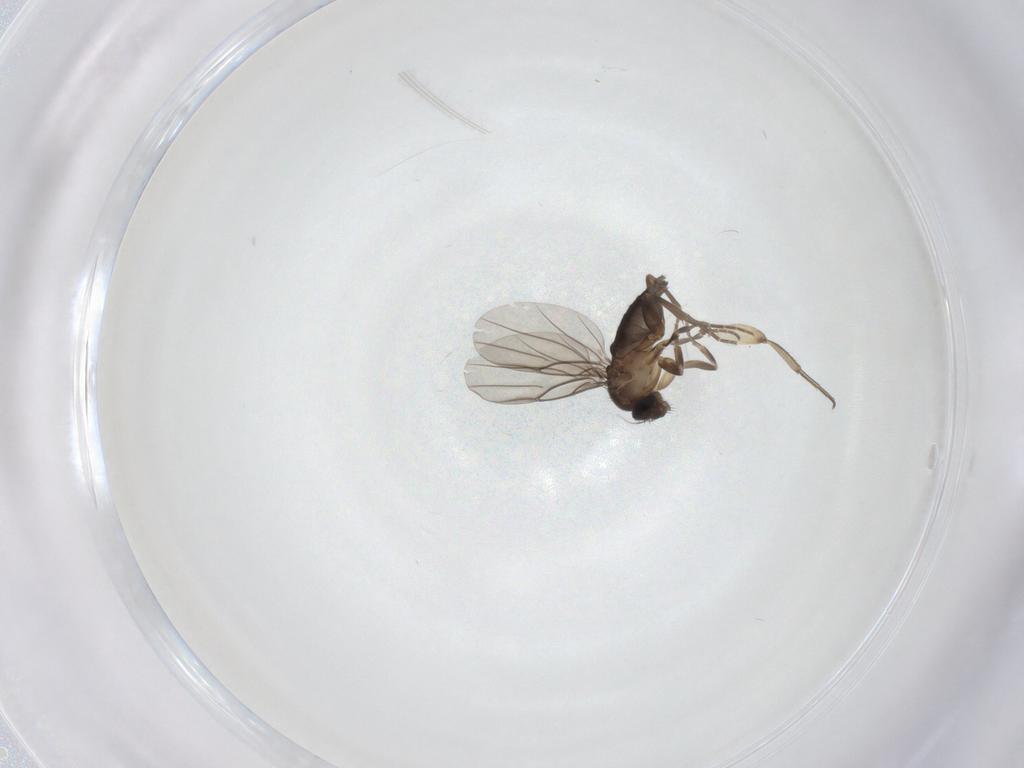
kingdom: Animalia
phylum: Arthropoda
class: Insecta
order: Diptera
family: Phoridae
